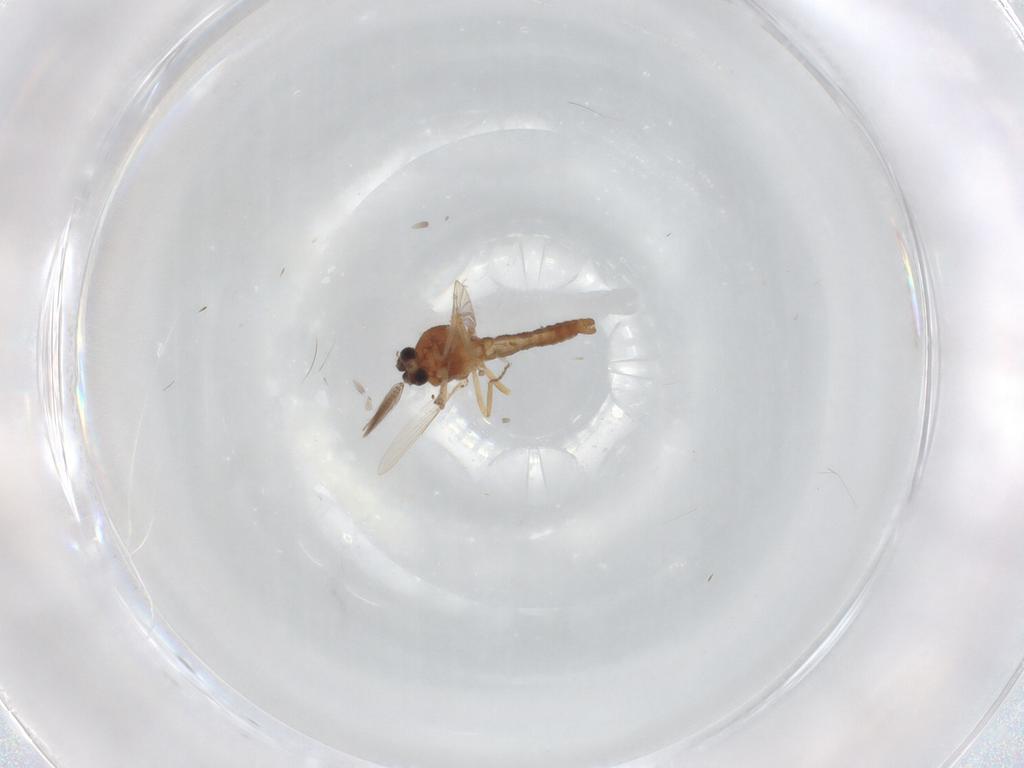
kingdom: Animalia
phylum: Arthropoda
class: Insecta
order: Diptera
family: Ceratopogonidae
